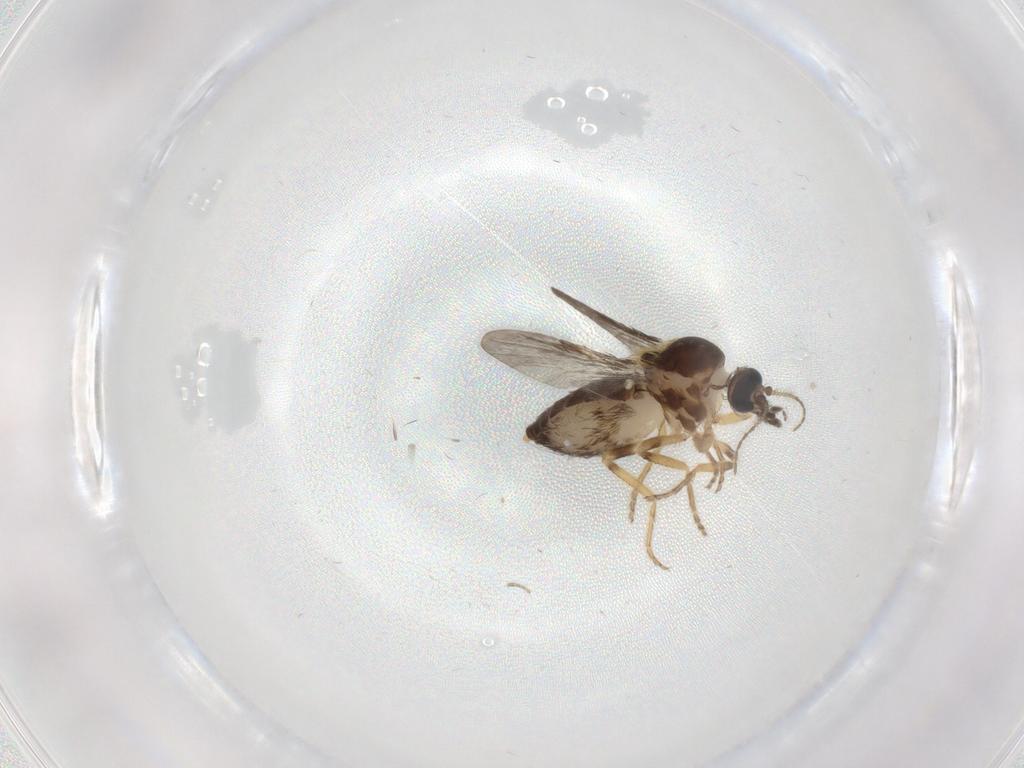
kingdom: Animalia
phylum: Arthropoda
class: Insecta
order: Diptera
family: Ceratopogonidae
